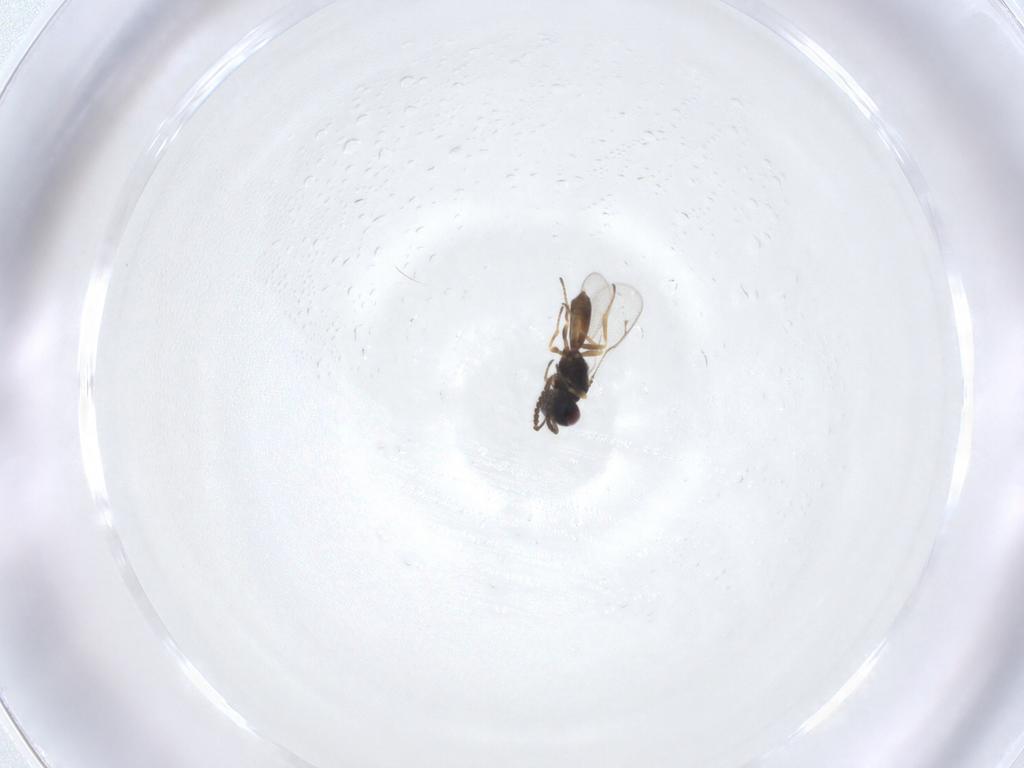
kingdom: Animalia
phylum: Arthropoda
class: Insecta
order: Hymenoptera
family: Pteromalidae
